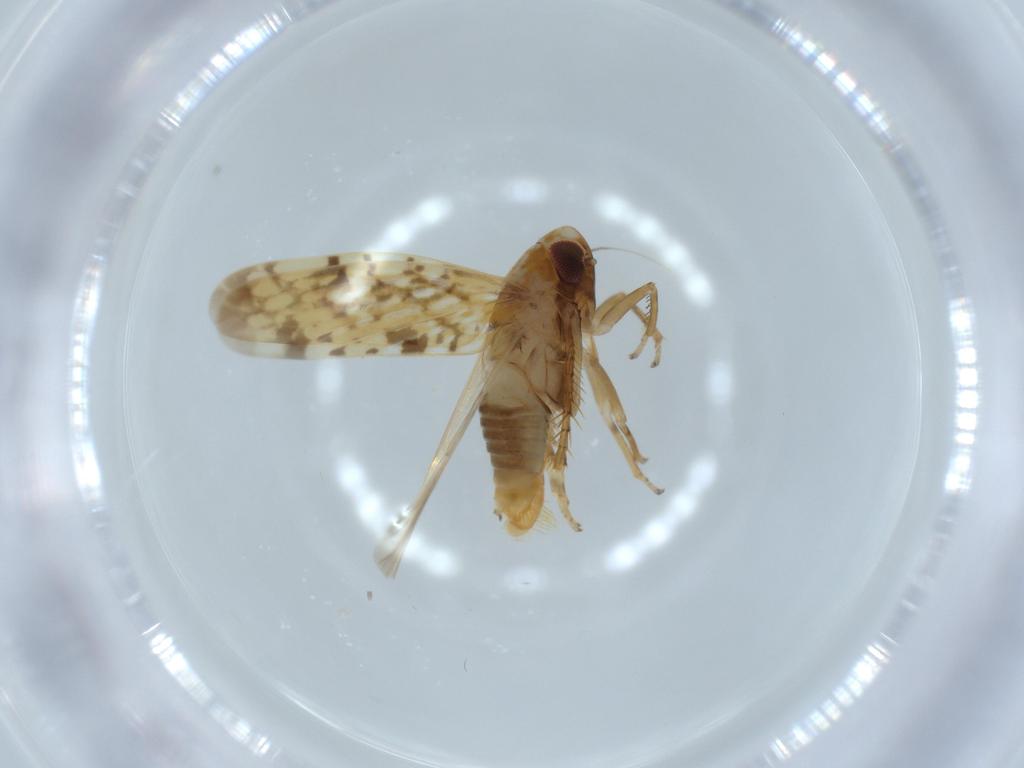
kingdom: Animalia
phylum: Arthropoda
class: Insecta
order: Hemiptera
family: Cicadellidae
